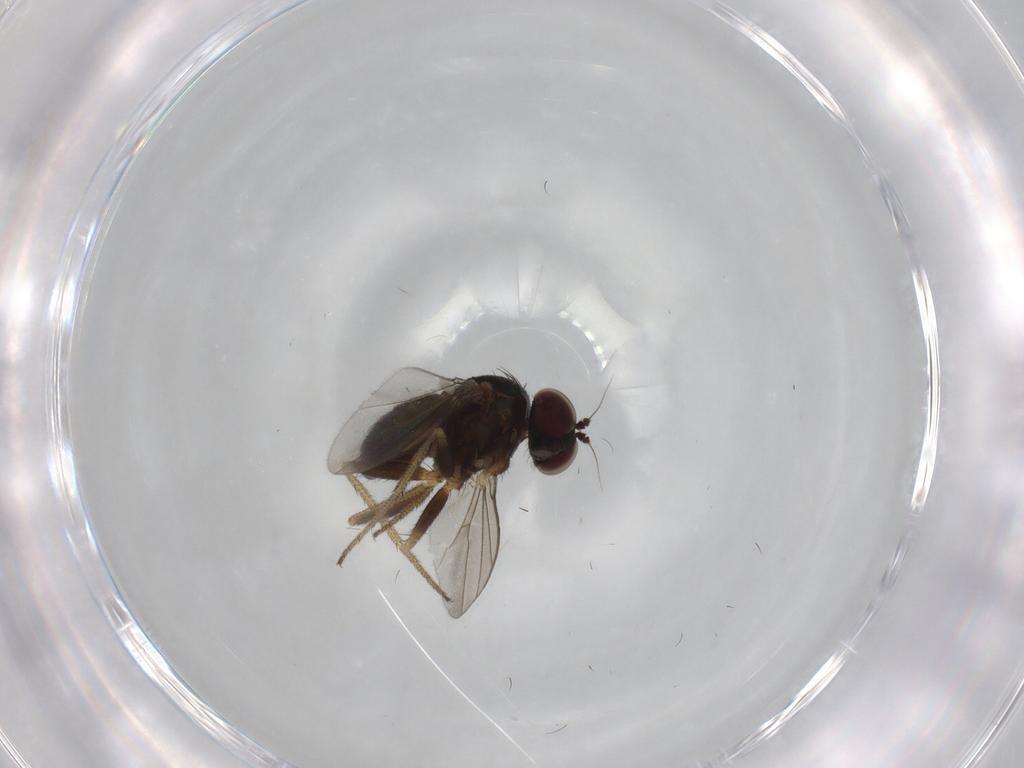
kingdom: Animalia
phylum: Arthropoda
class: Insecta
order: Diptera
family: Dolichopodidae
